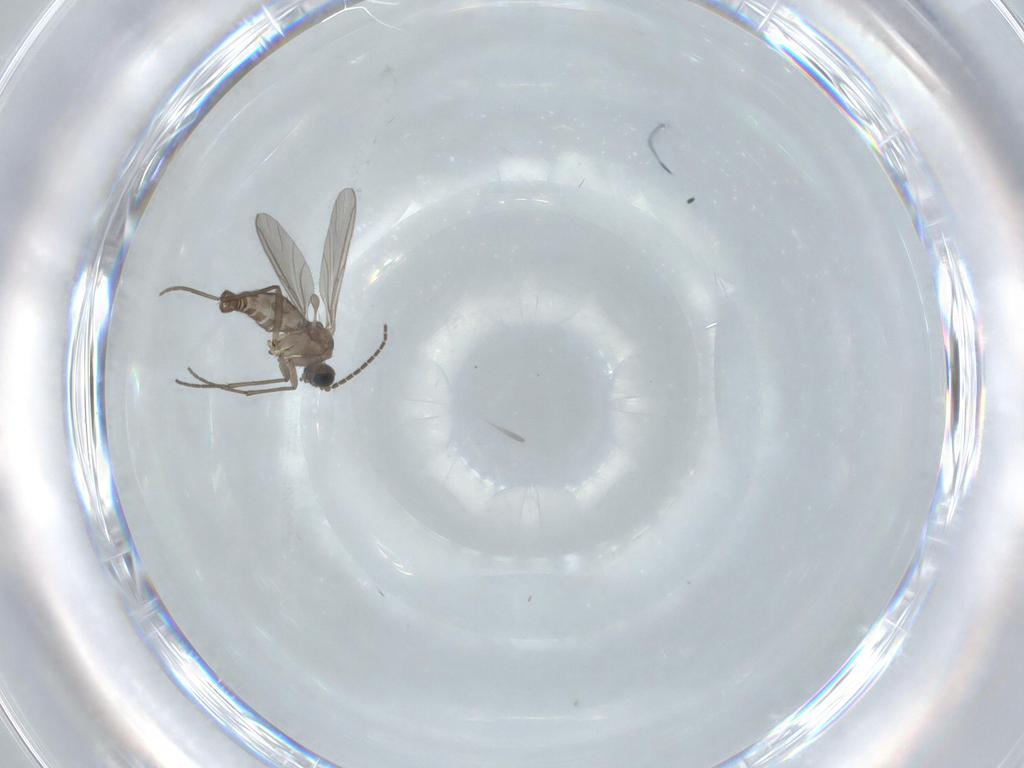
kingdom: Animalia
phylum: Arthropoda
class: Insecta
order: Diptera
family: Sciaridae
